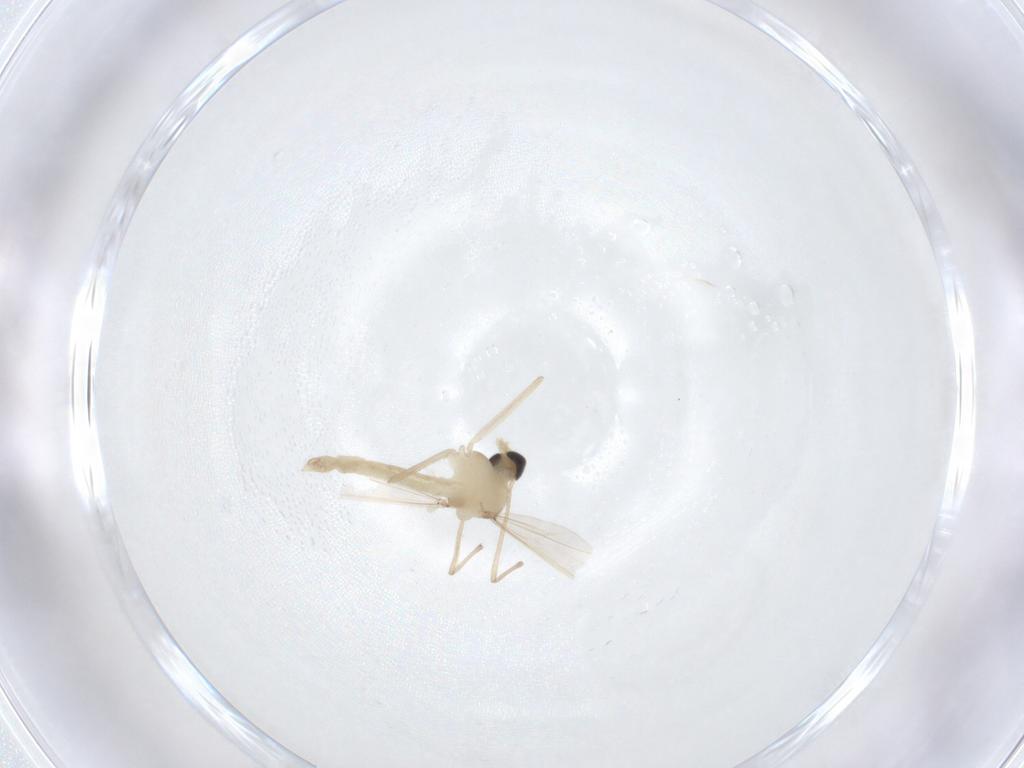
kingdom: Animalia
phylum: Arthropoda
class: Insecta
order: Diptera
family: Chironomidae
